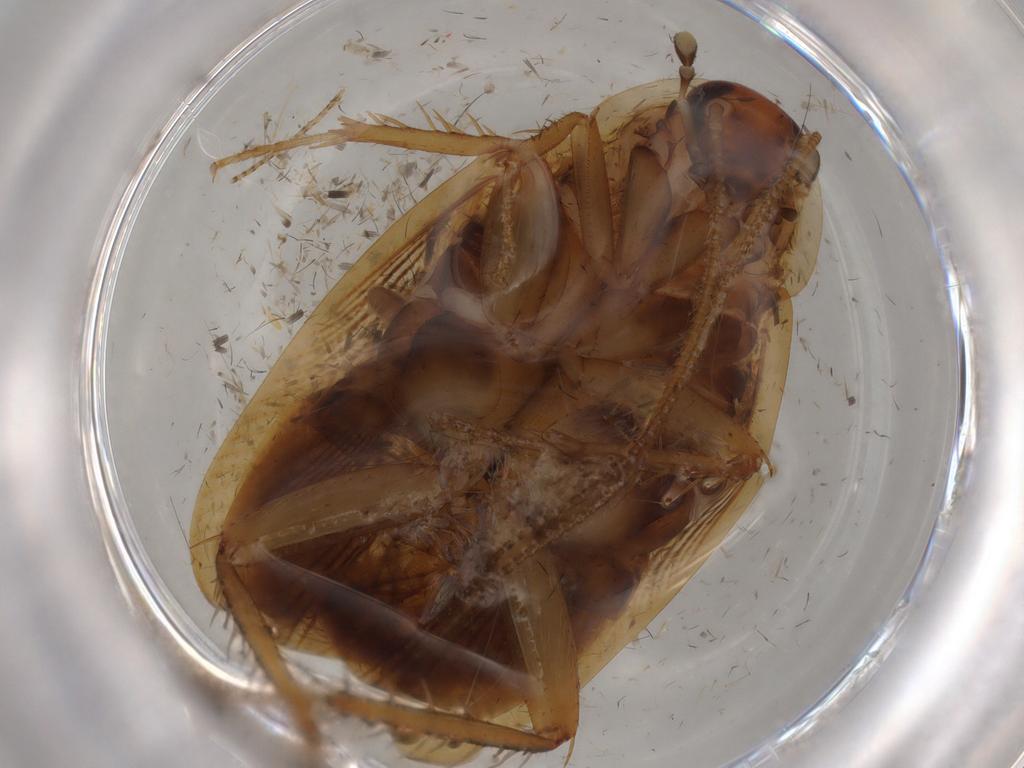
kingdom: Animalia
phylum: Arthropoda
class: Insecta
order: Blattodea
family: Ectobiidae
